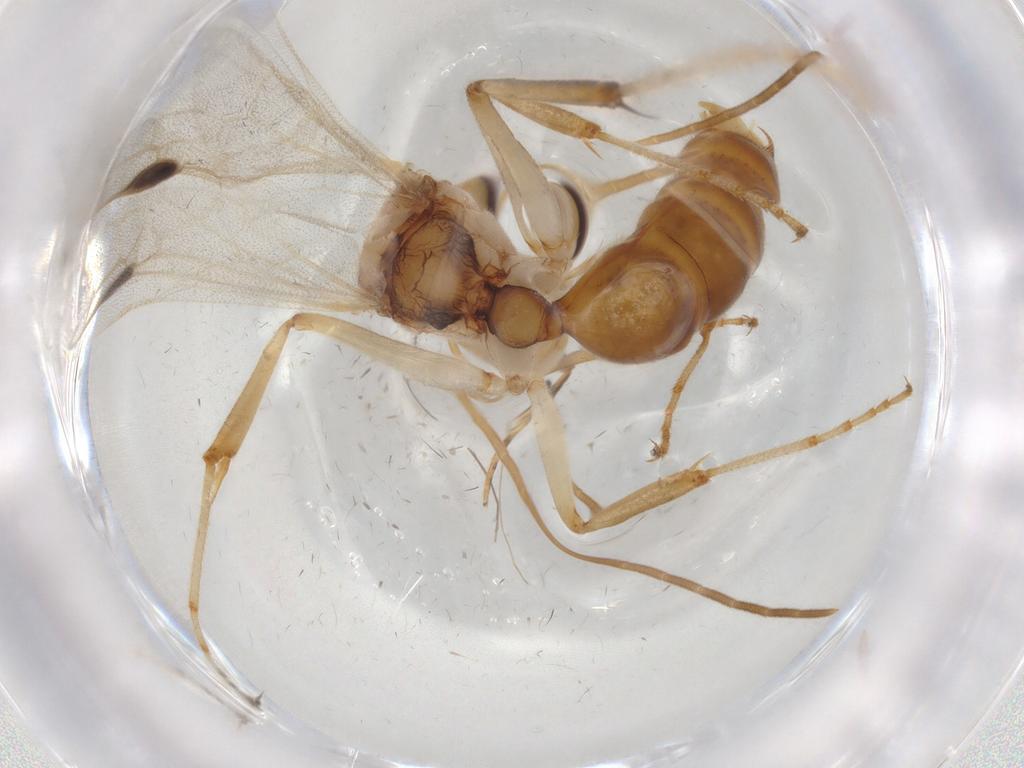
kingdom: Animalia
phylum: Arthropoda
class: Insecta
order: Hymenoptera
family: Formicidae
